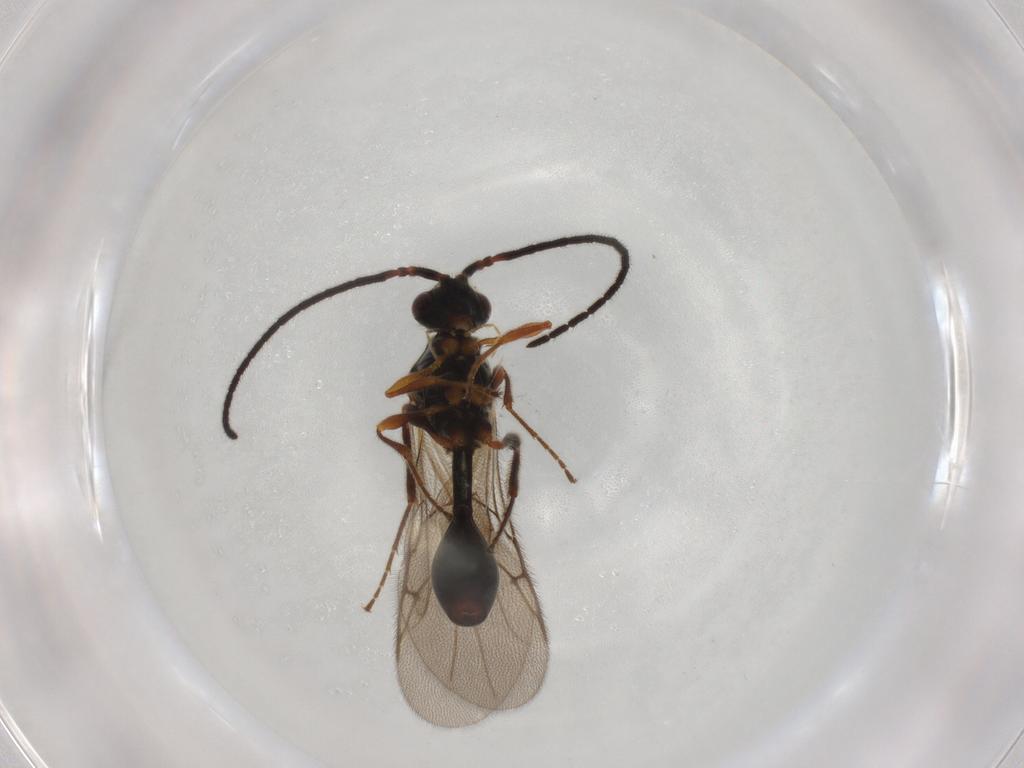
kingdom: Animalia
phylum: Arthropoda
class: Insecta
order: Hymenoptera
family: Diapriidae
